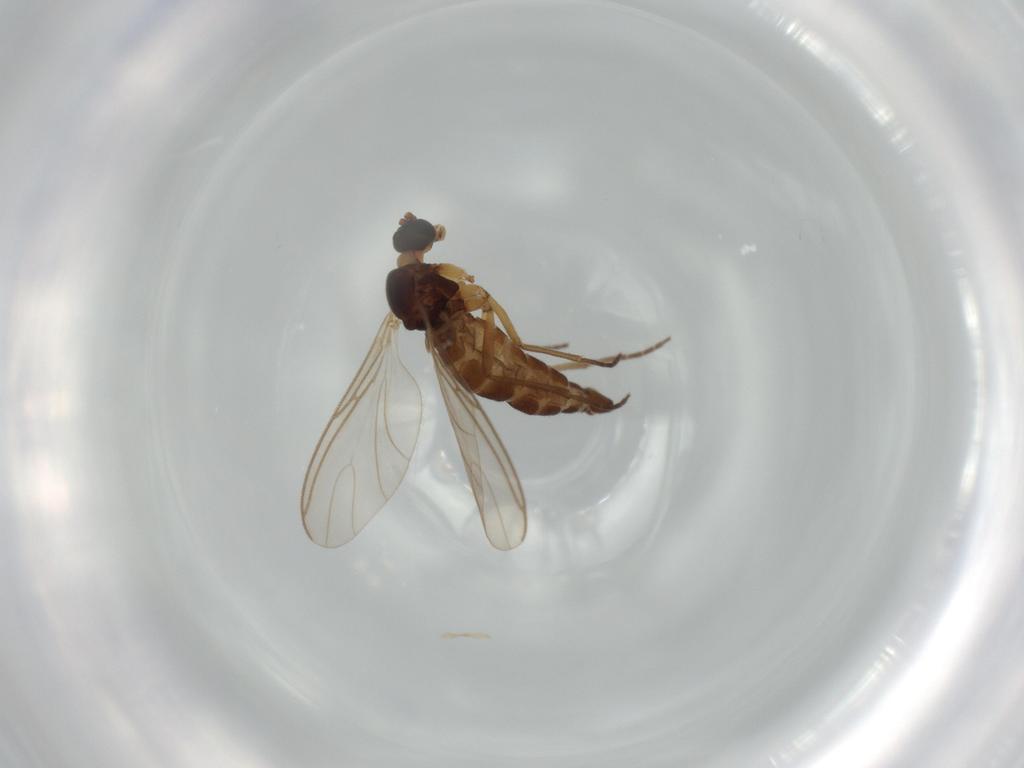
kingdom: Animalia
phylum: Arthropoda
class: Insecta
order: Diptera
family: Sciaridae
